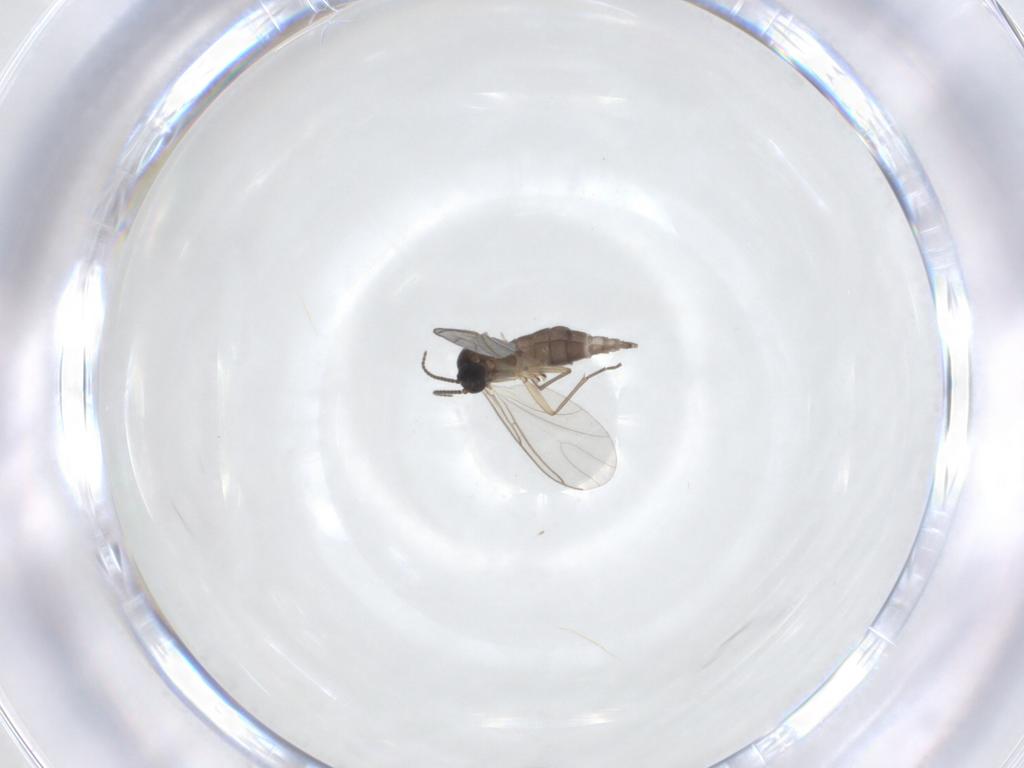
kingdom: Animalia
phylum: Arthropoda
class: Insecta
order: Diptera
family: Sciaridae
